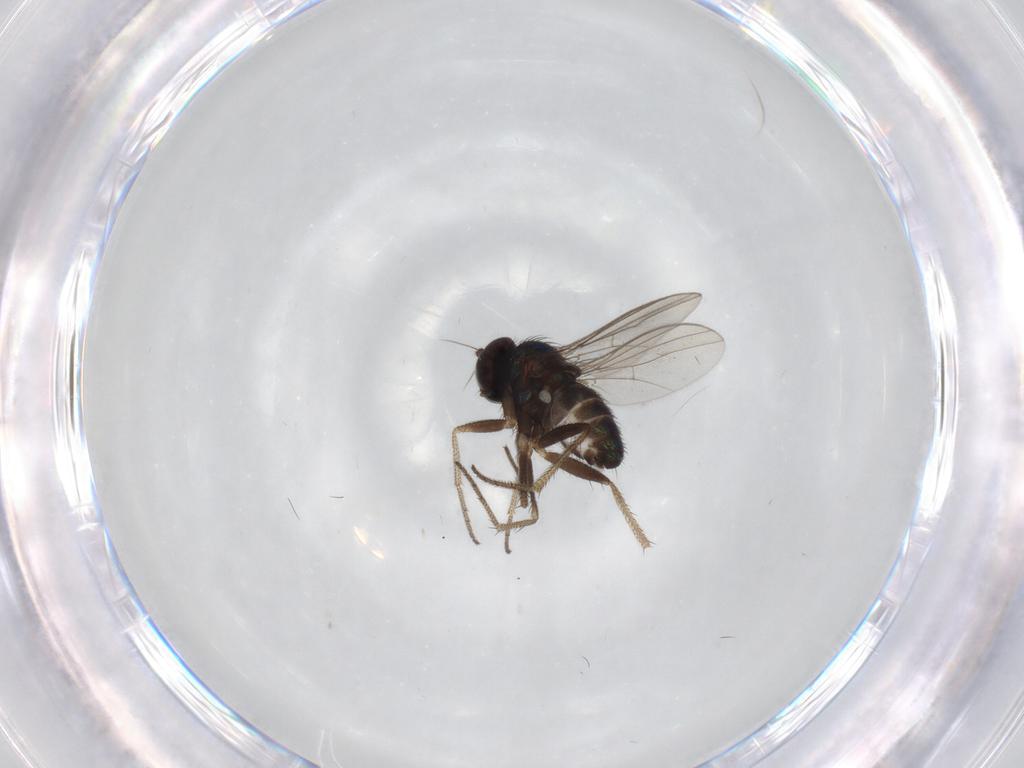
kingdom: Animalia
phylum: Arthropoda
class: Insecta
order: Diptera
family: Dolichopodidae
